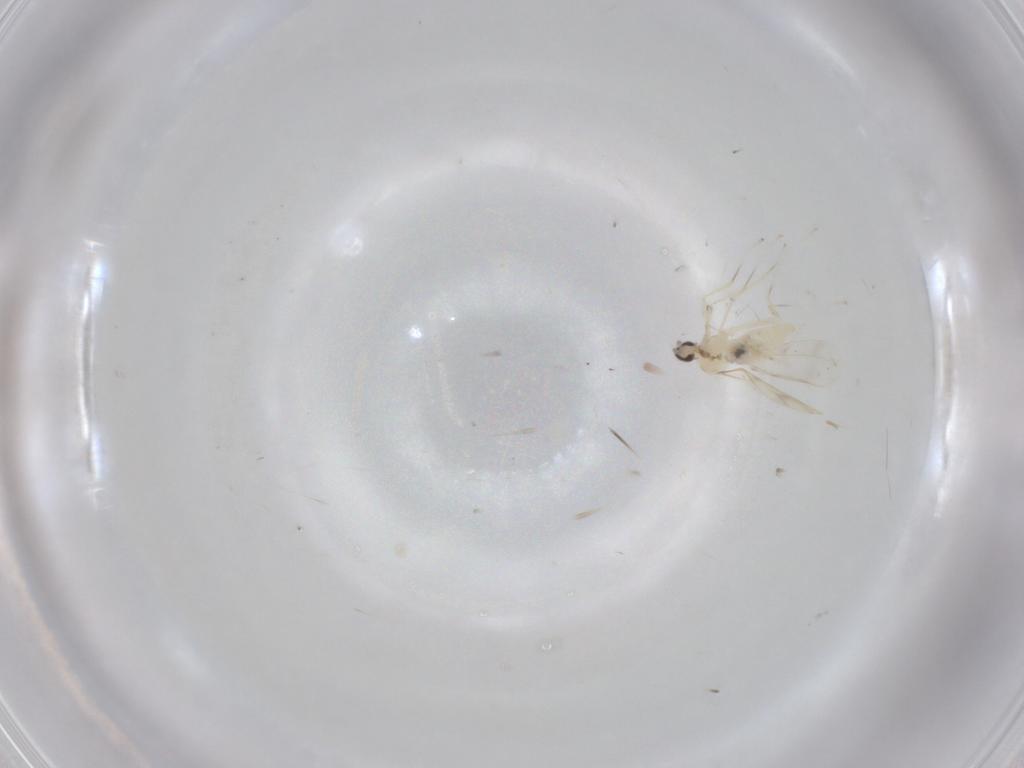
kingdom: Animalia
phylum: Arthropoda
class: Insecta
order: Diptera
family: Cecidomyiidae
